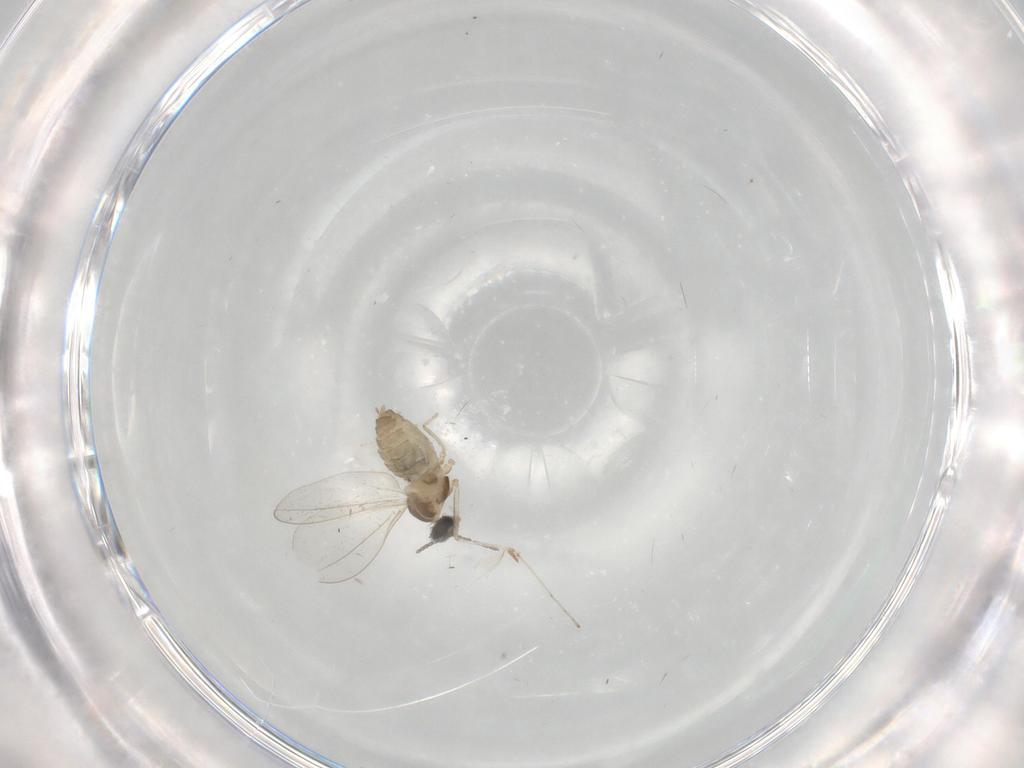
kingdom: Animalia
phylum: Arthropoda
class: Insecta
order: Diptera
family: Cecidomyiidae
